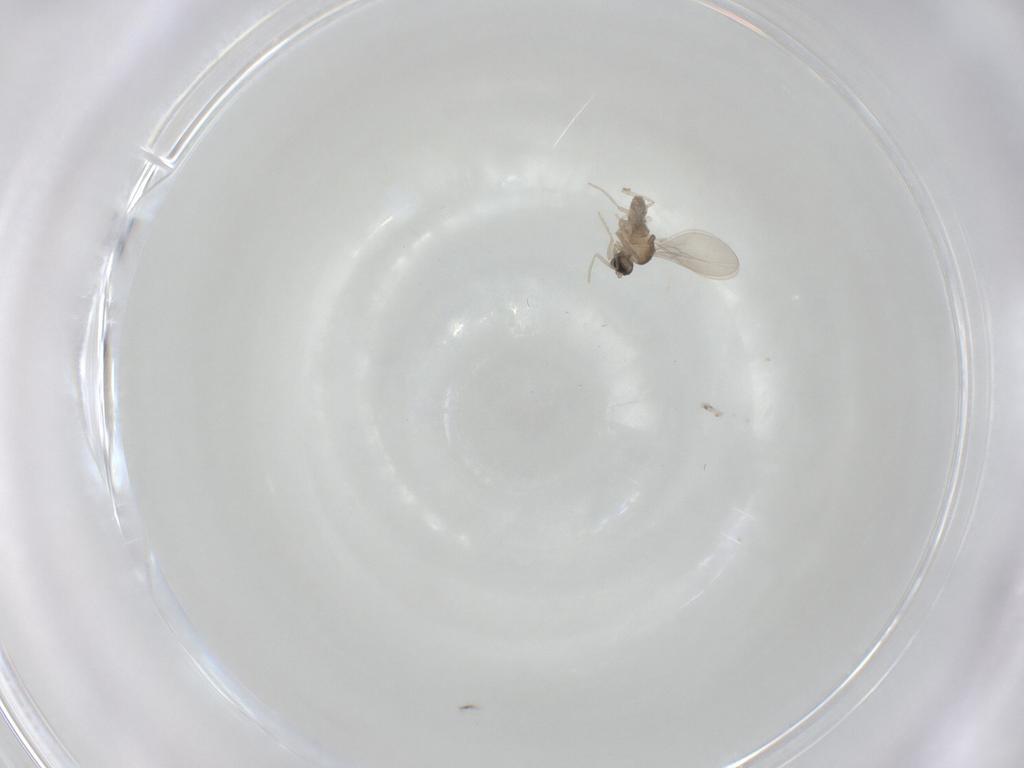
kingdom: Animalia
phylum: Arthropoda
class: Insecta
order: Diptera
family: Cecidomyiidae
